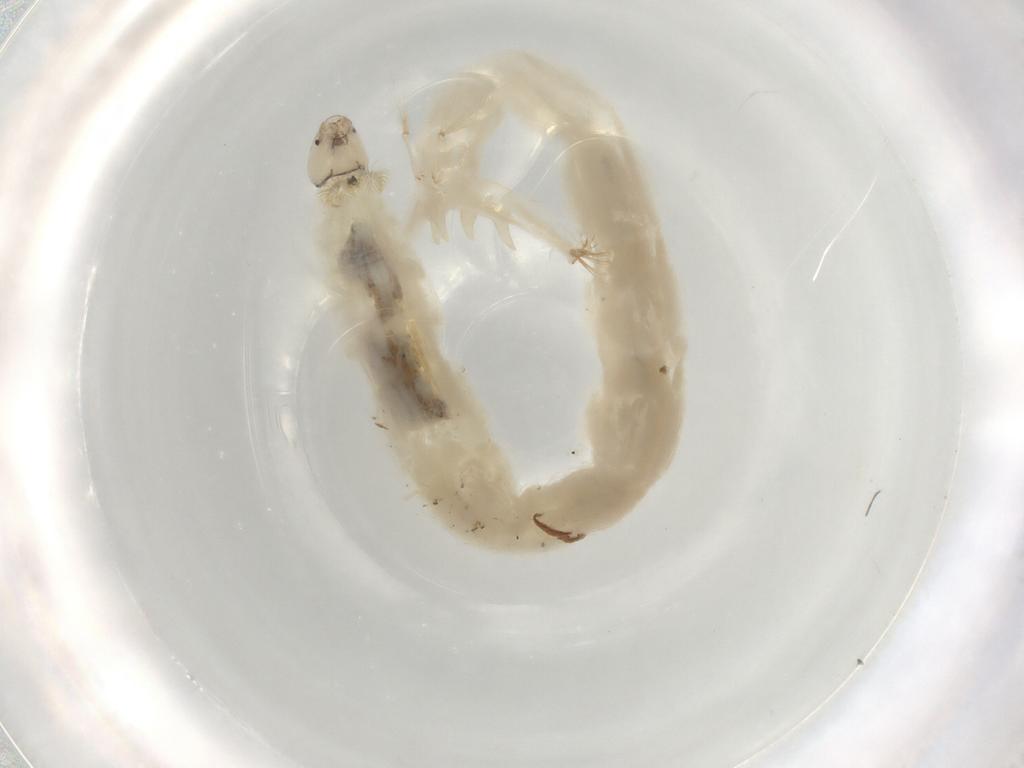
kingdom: Animalia
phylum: Arthropoda
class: Insecta
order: Diptera
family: Chironomidae
